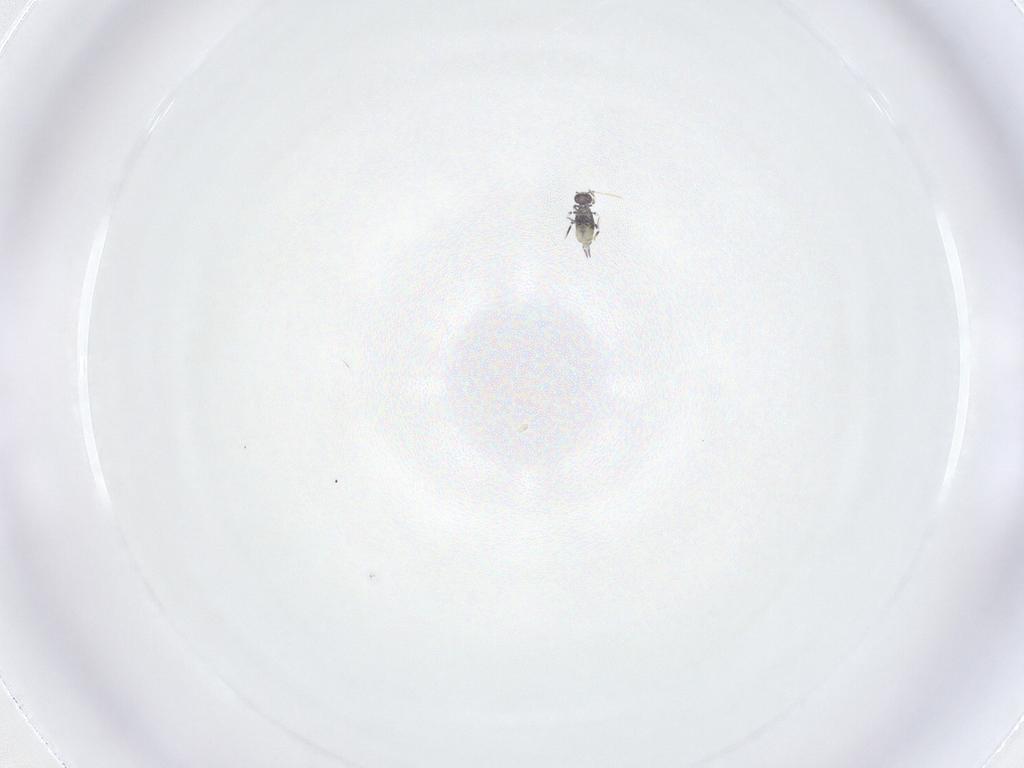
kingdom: Animalia
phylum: Arthropoda
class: Collembola
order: Symphypleona
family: Katiannidae
